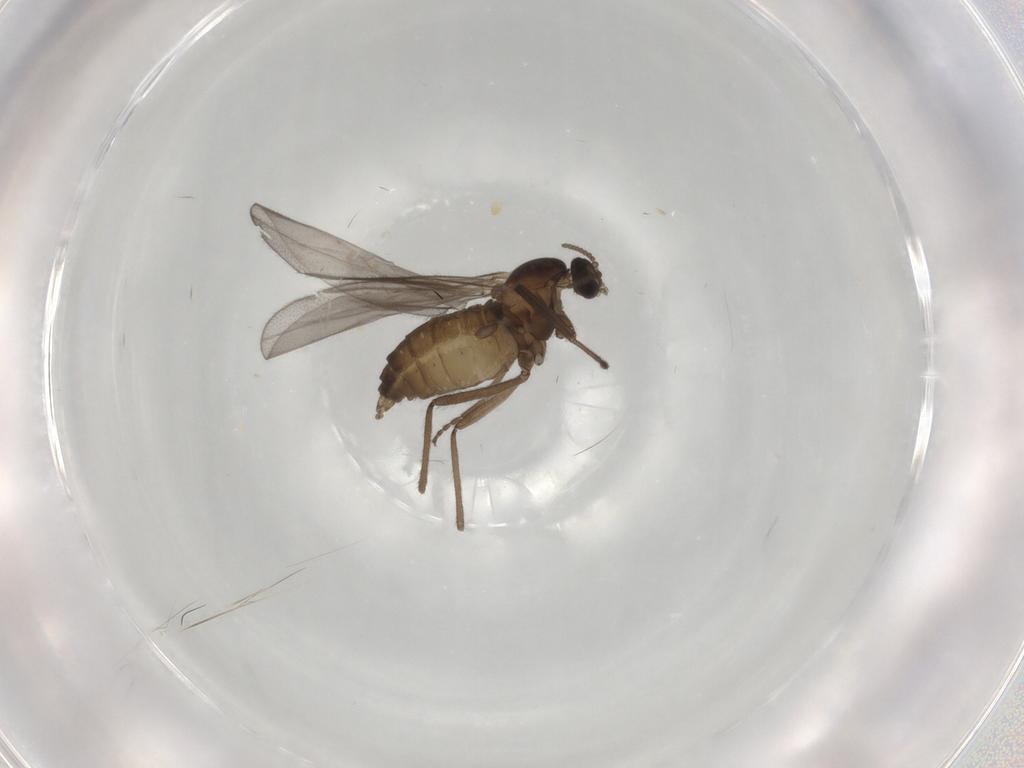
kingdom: Animalia
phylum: Arthropoda
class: Insecta
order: Diptera
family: Cecidomyiidae
